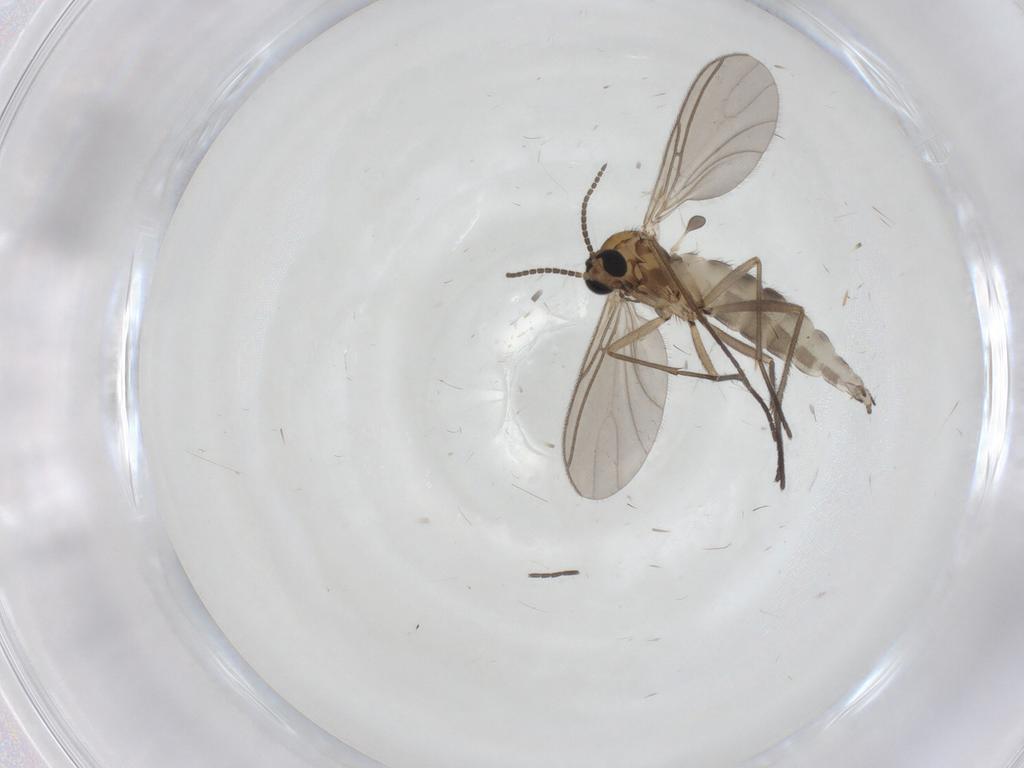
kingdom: Animalia
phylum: Arthropoda
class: Insecta
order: Diptera
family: Sciaridae
